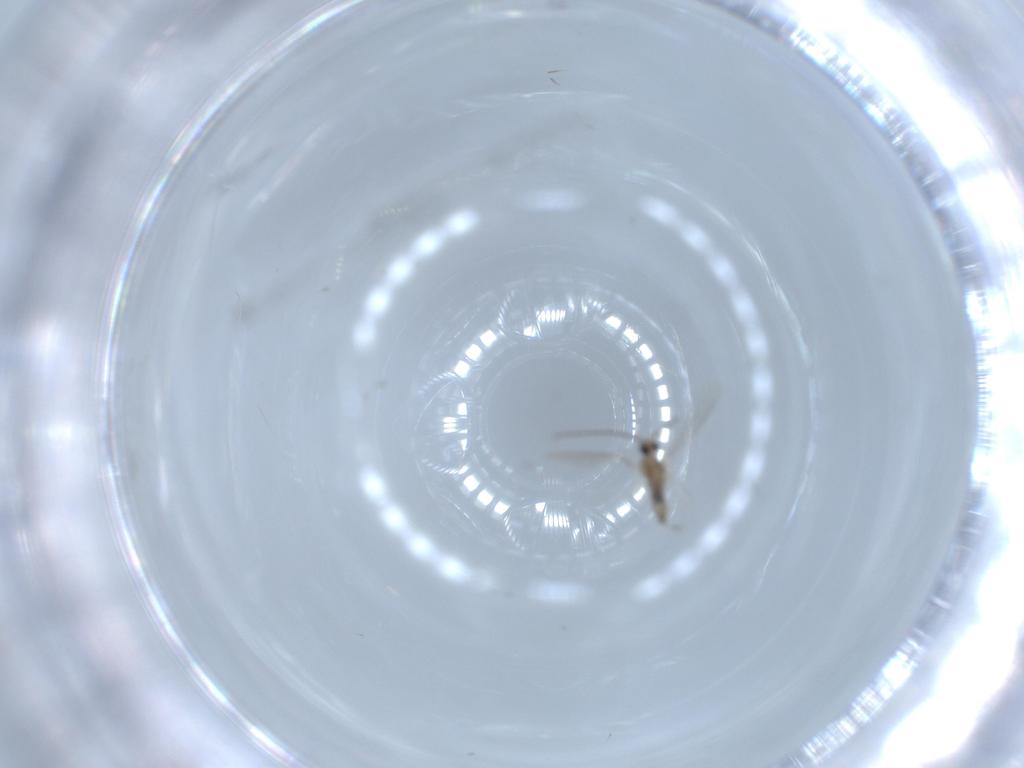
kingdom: Animalia
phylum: Arthropoda
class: Insecta
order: Diptera
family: Cecidomyiidae
